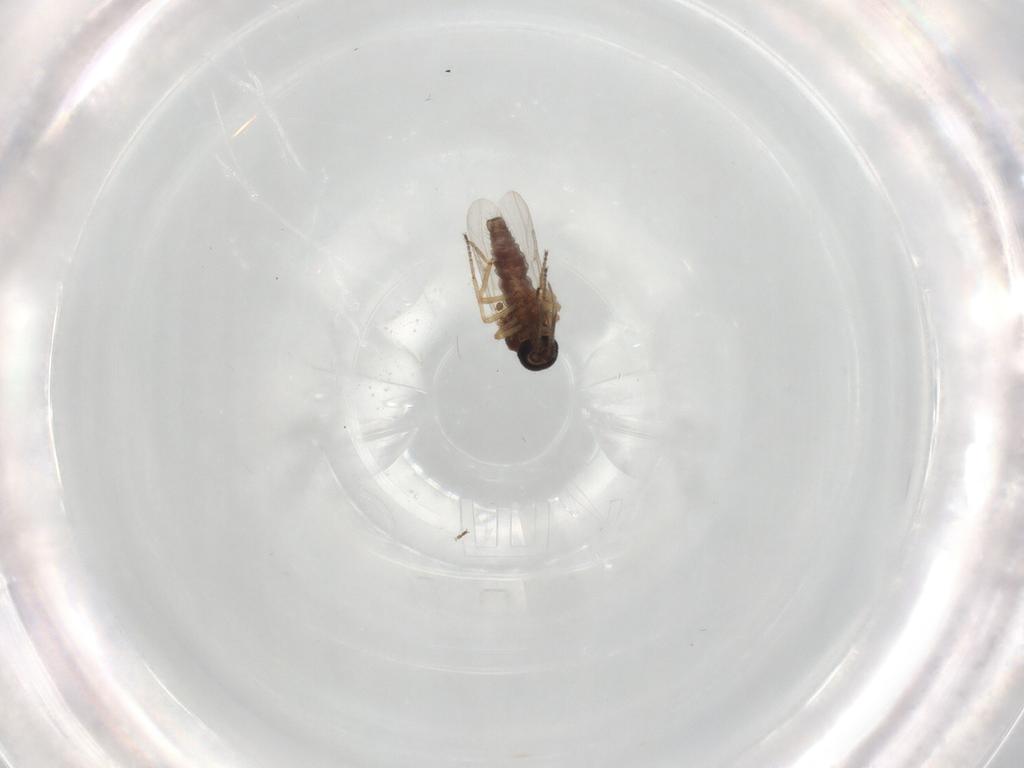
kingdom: Animalia
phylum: Arthropoda
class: Insecta
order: Diptera
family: Ceratopogonidae
